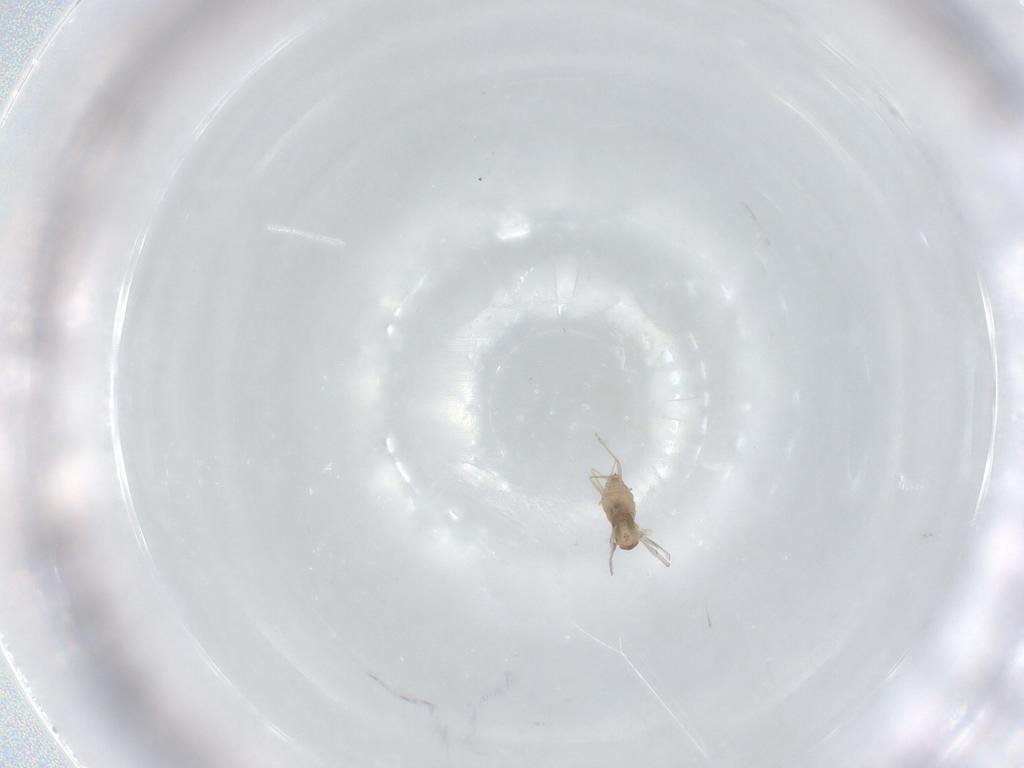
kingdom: Animalia
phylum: Arthropoda
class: Insecta
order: Diptera
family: Cecidomyiidae
